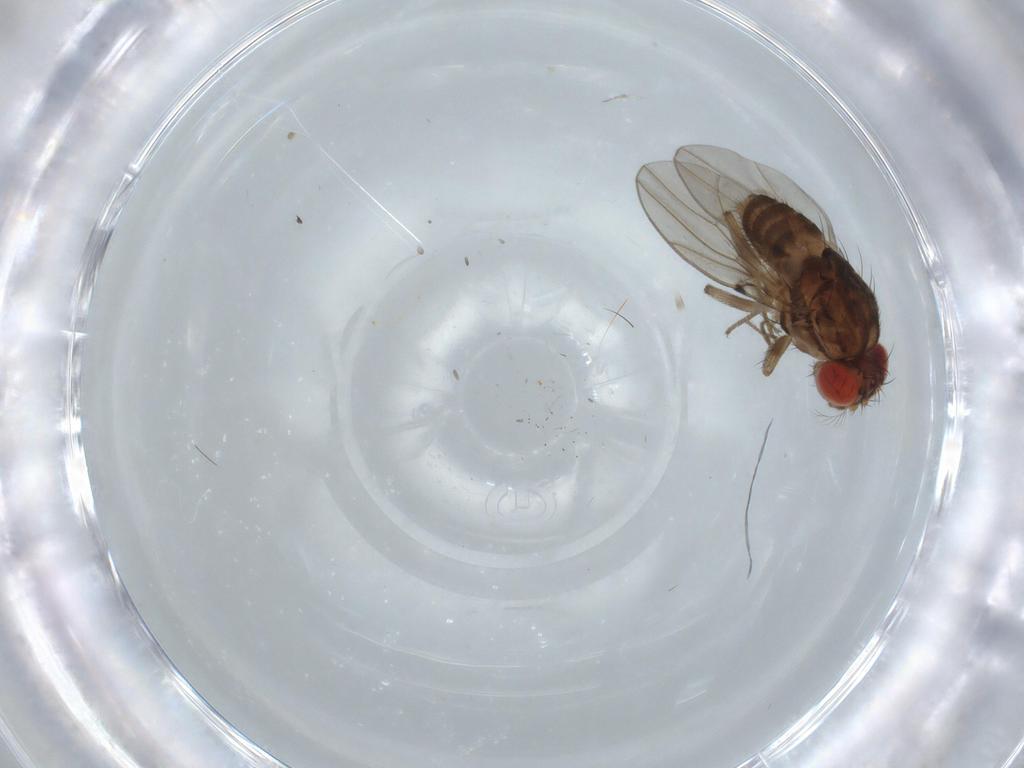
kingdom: Animalia
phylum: Arthropoda
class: Insecta
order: Diptera
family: Drosophilidae
